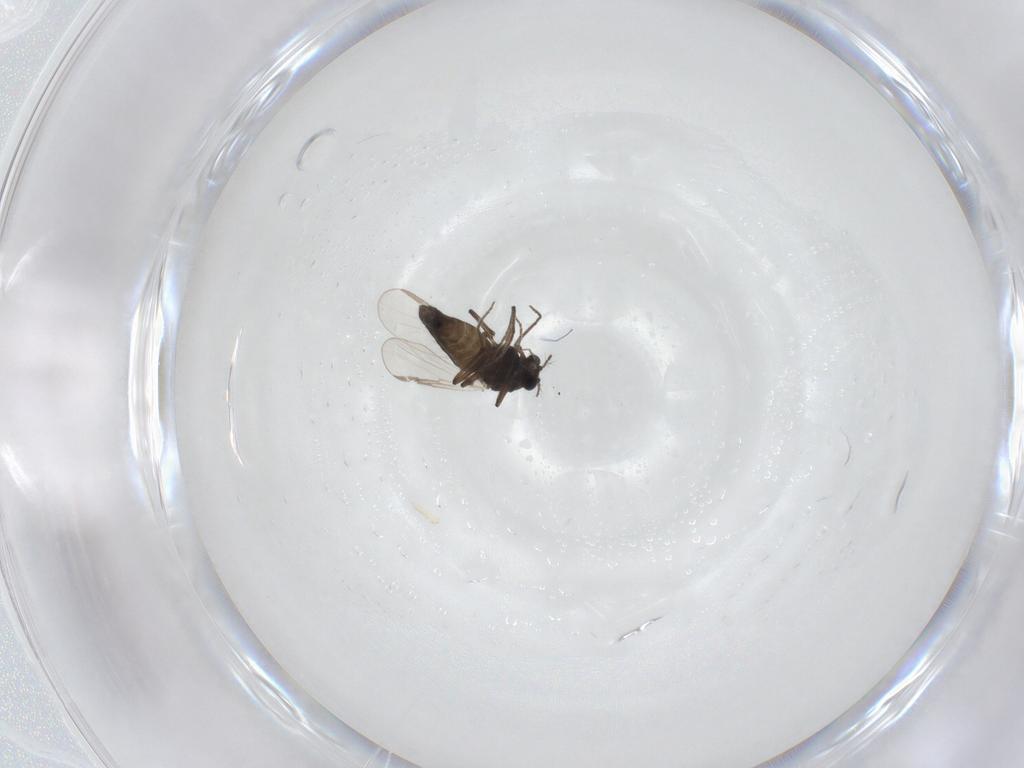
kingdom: Animalia
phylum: Arthropoda
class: Insecta
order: Diptera
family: Chironomidae
